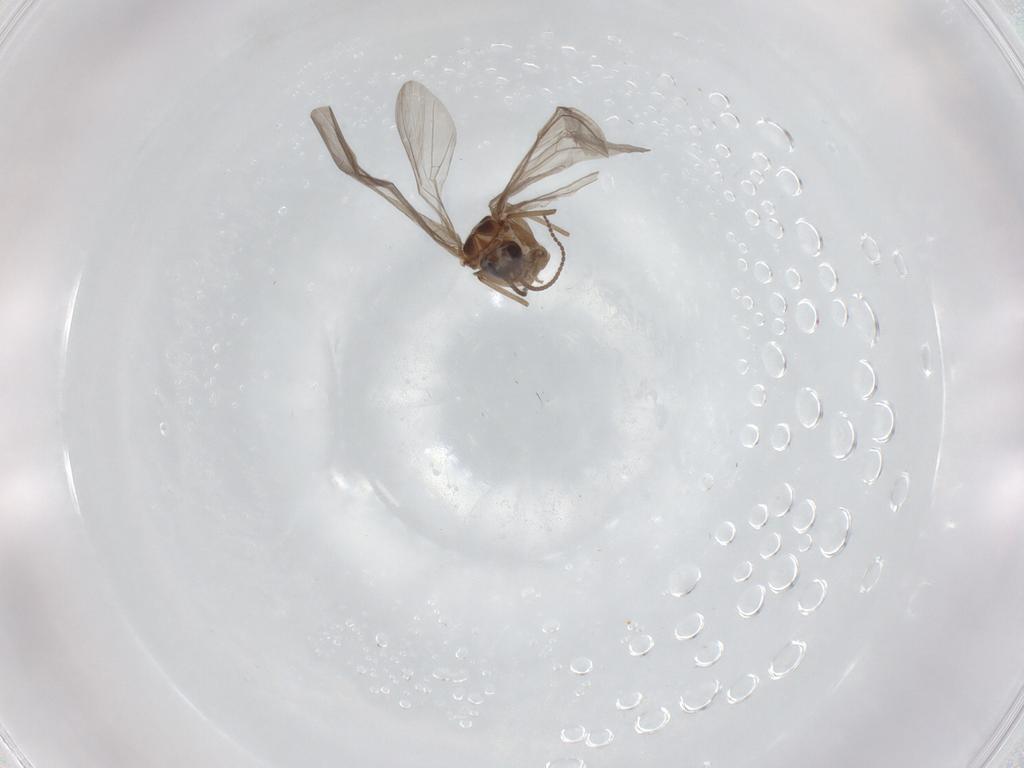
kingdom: Animalia
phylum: Arthropoda
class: Insecta
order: Neuroptera
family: Coniopterygidae
